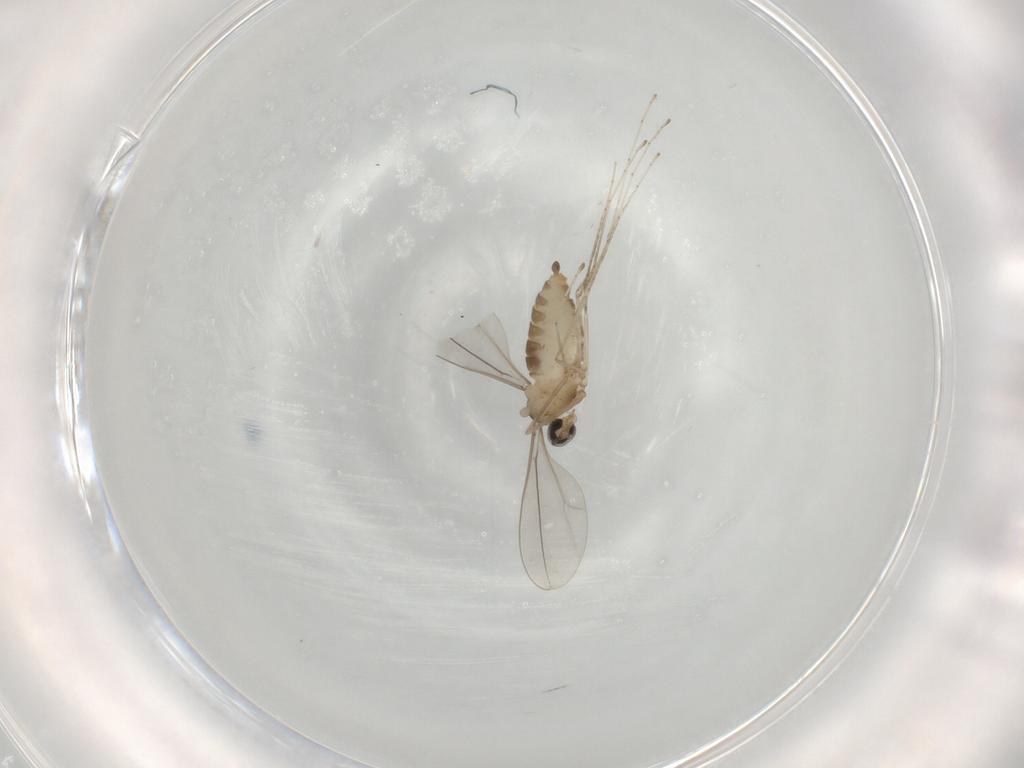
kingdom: Animalia
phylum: Arthropoda
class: Insecta
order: Diptera
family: Cecidomyiidae
